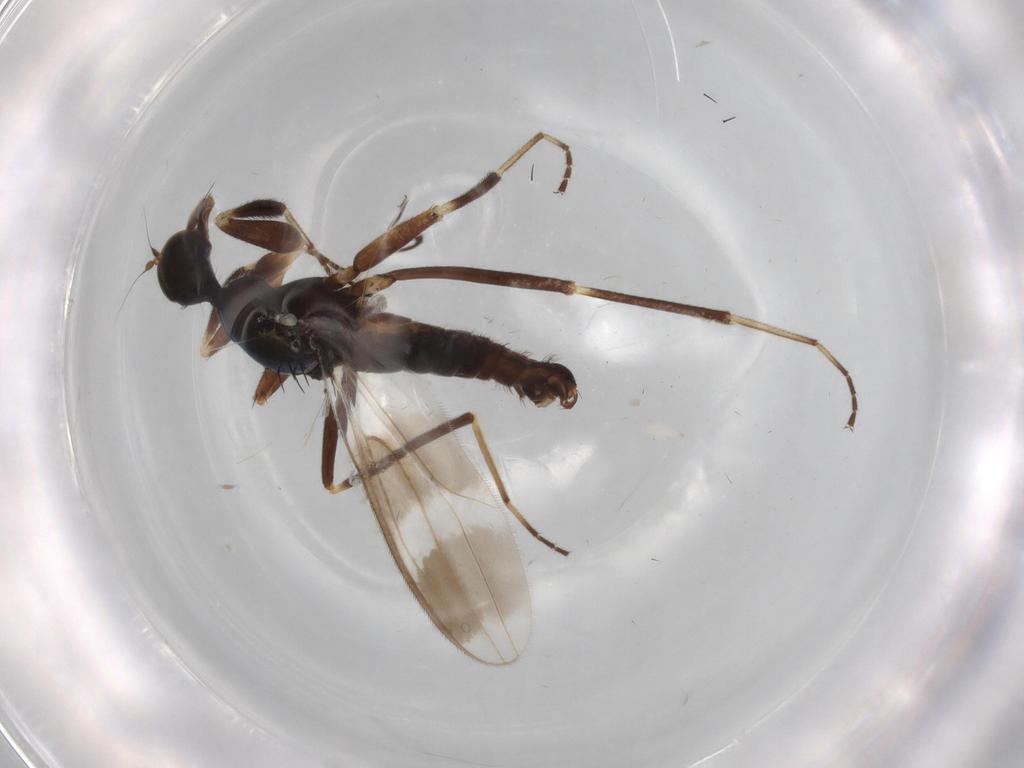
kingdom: Animalia
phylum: Arthropoda
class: Insecta
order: Diptera
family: Hybotidae
